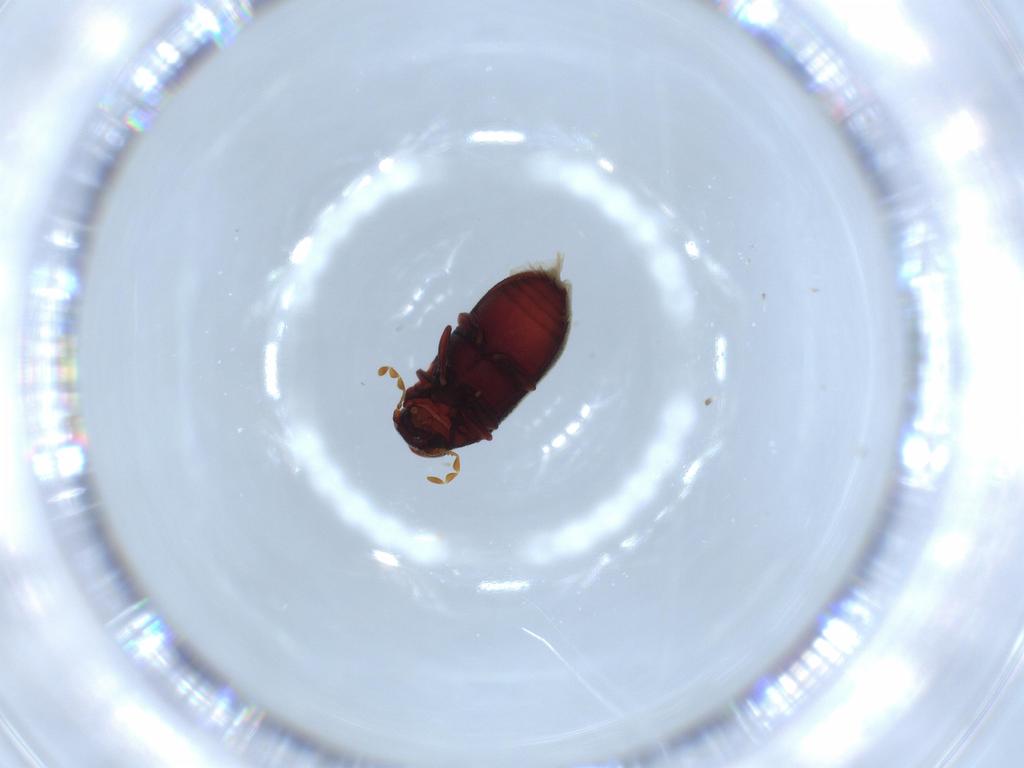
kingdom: Animalia
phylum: Arthropoda
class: Insecta
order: Coleoptera
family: Anobiidae
